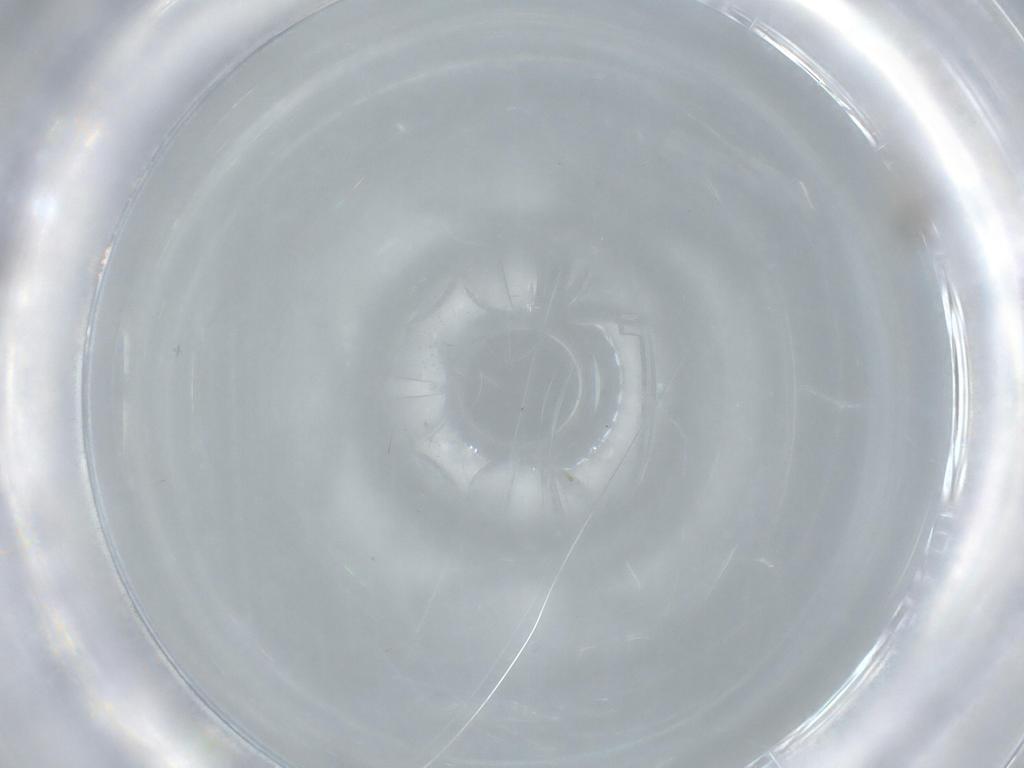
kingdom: Animalia
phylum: Arthropoda
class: Insecta
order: Diptera
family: Ceratopogonidae
